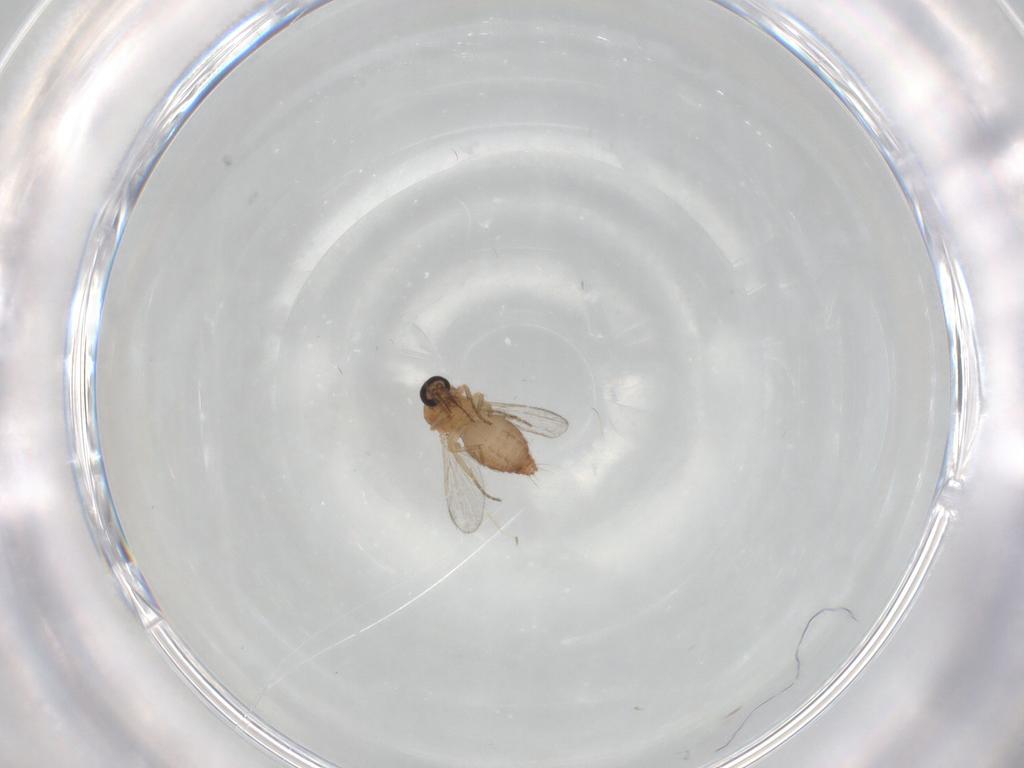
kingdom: Animalia
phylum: Arthropoda
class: Insecta
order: Diptera
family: Ceratopogonidae
